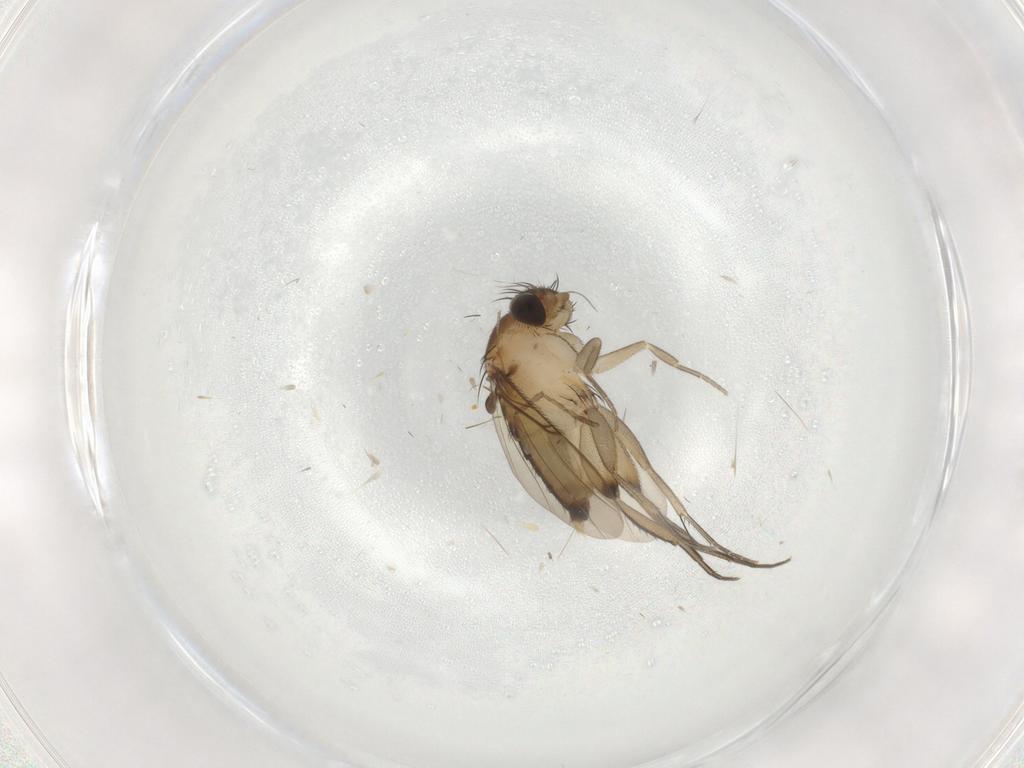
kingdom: Animalia
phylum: Arthropoda
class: Insecta
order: Diptera
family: Phoridae
